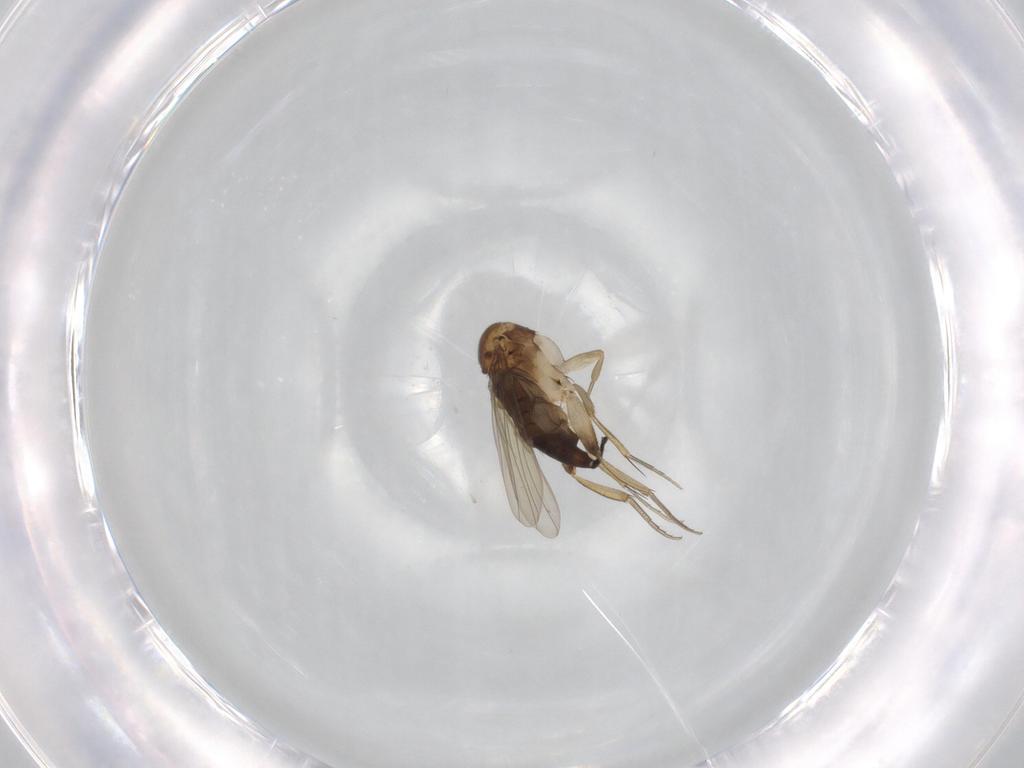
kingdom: Animalia
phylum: Arthropoda
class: Insecta
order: Diptera
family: Phoridae
